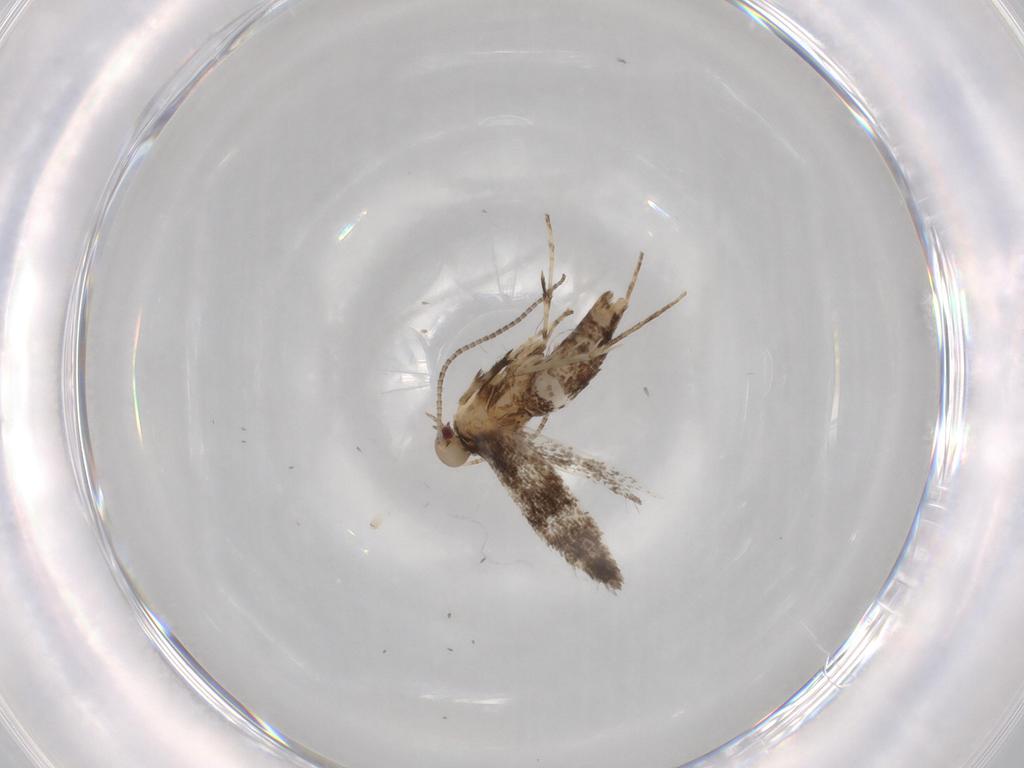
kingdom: Animalia
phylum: Arthropoda
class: Insecta
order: Lepidoptera
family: Gracillariidae
